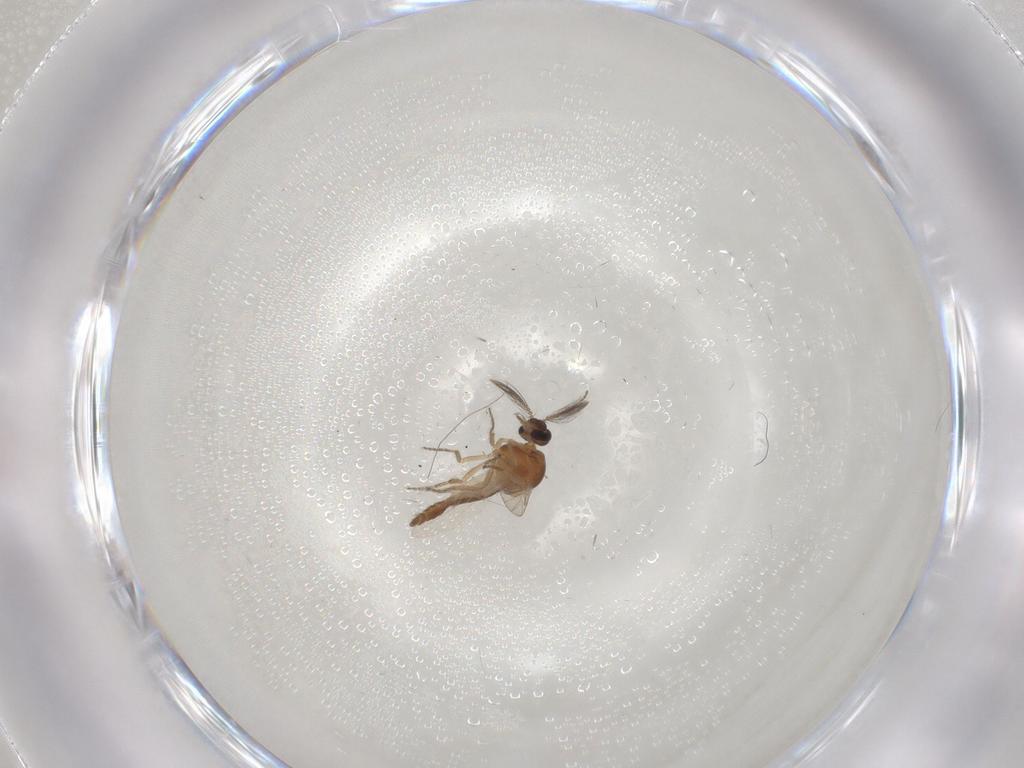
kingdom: Animalia
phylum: Arthropoda
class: Insecta
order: Diptera
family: Ceratopogonidae
